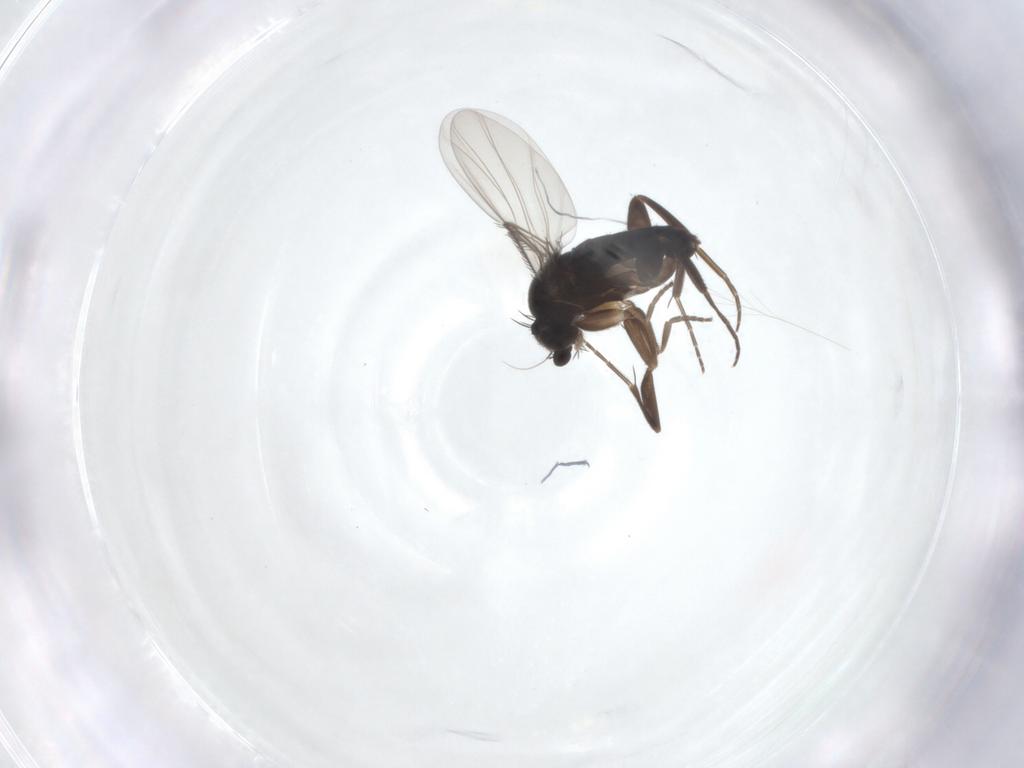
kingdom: Animalia
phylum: Arthropoda
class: Insecta
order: Diptera
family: Phoridae
